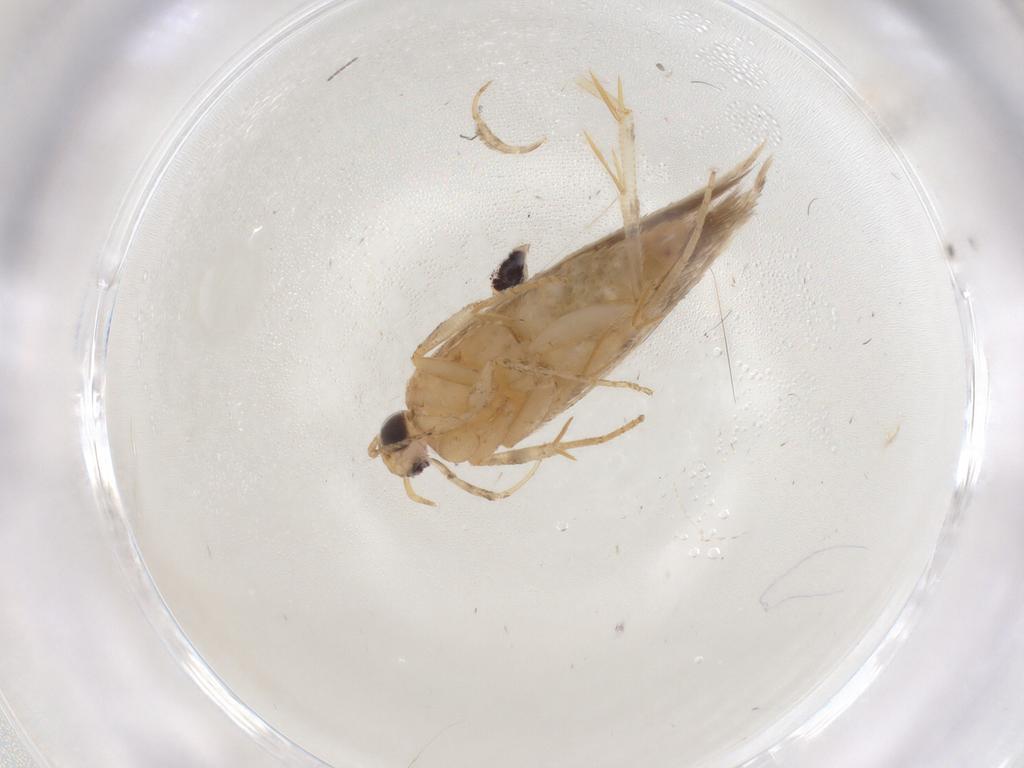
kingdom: Animalia
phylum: Arthropoda
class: Insecta
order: Lepidoptera
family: Gelechiidae
